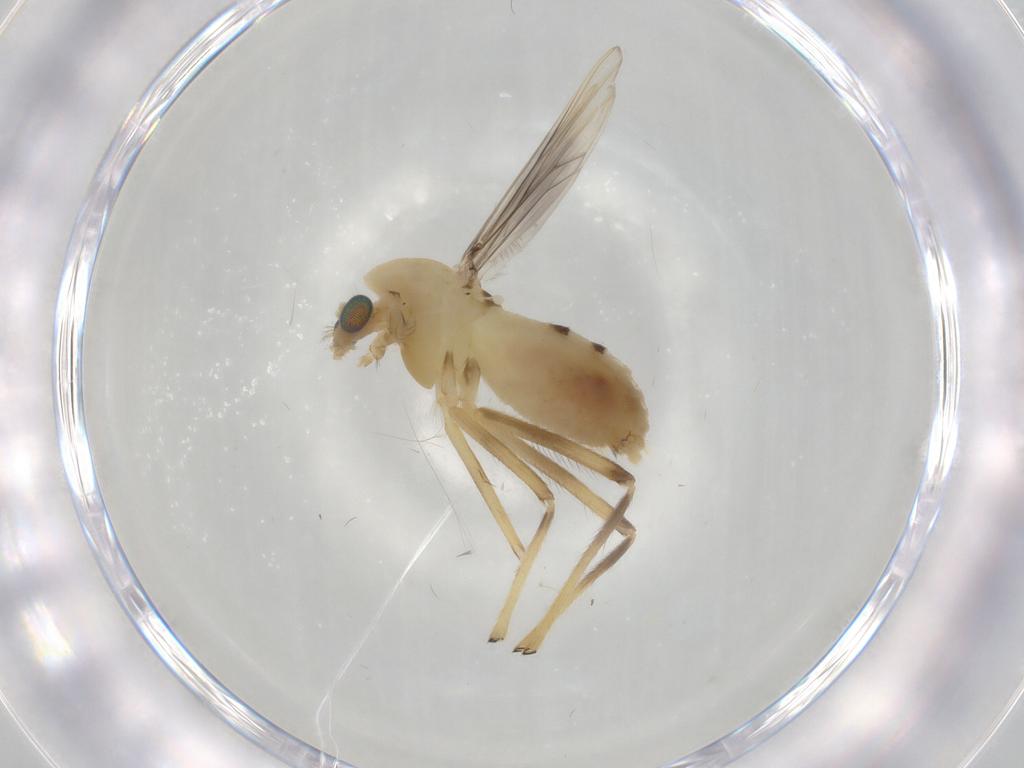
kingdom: Animalia
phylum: Arthropoda
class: Insecta
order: Diptera
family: Chironomidae
